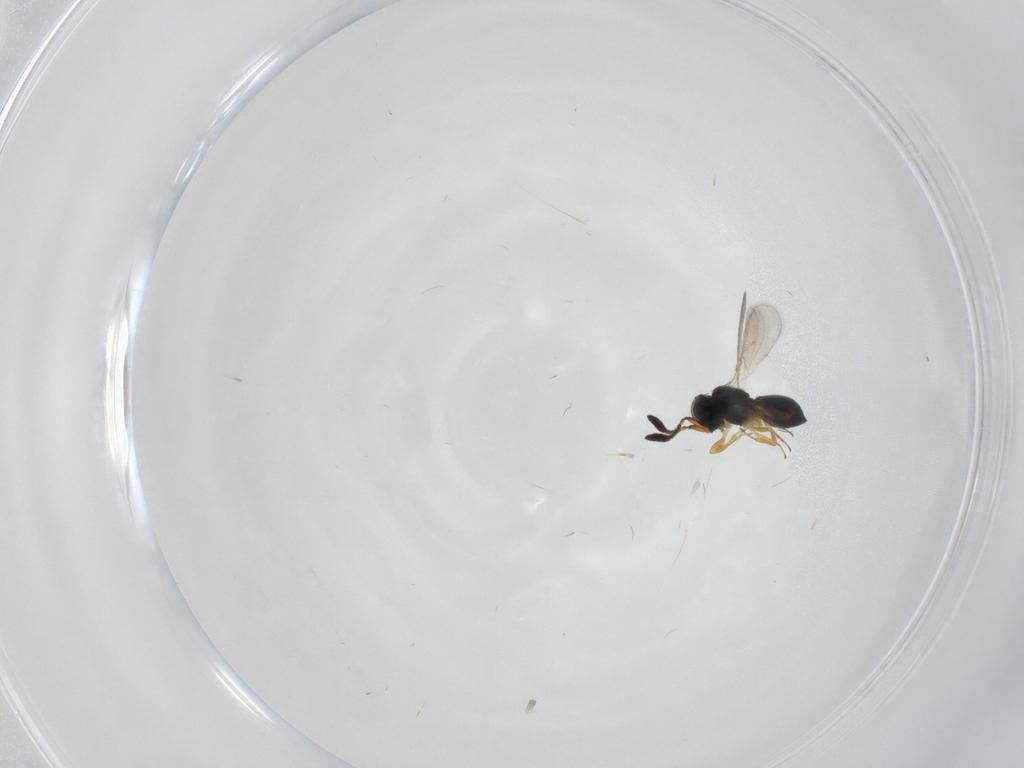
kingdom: Animalia
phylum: Arthropoda
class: Insecta
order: Hymenoptera
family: Scelionidae
